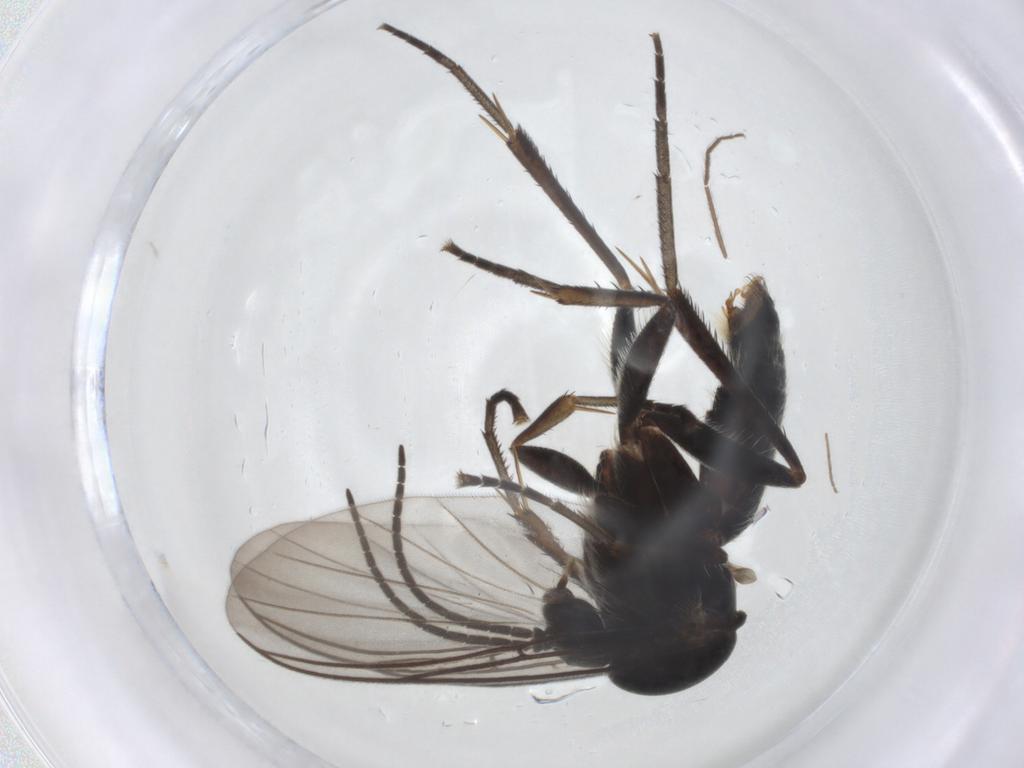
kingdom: Animalia
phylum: Arthropoda
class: Insecta
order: Diptera
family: Mycetophilidae
